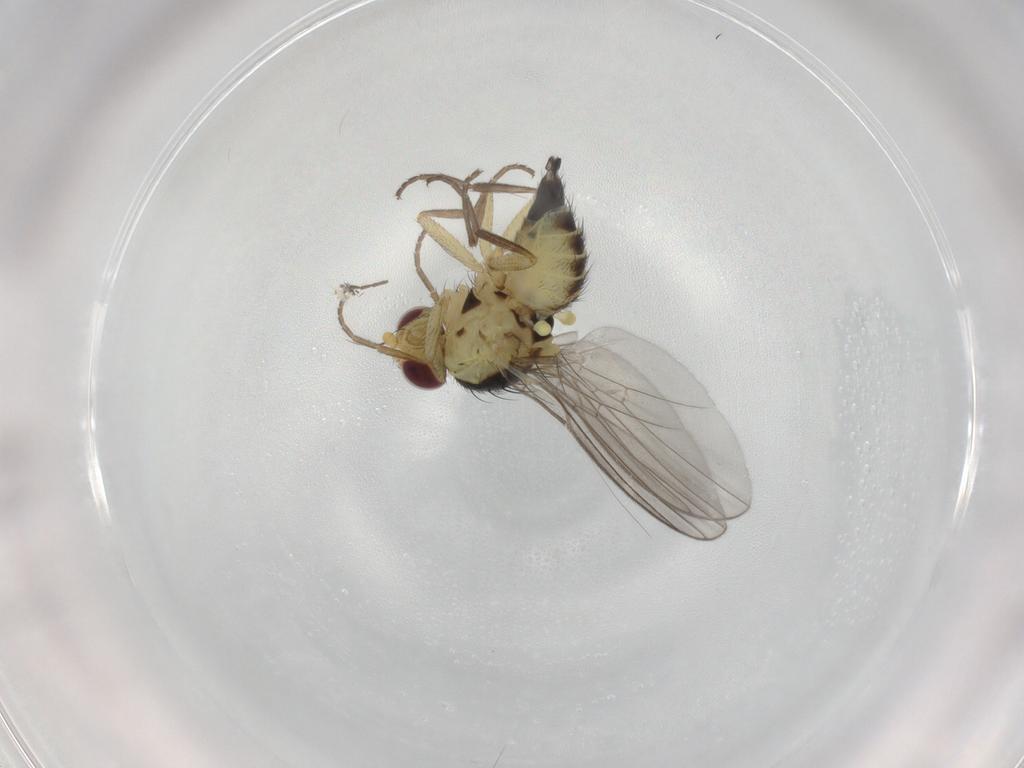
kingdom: Animalia
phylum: Arthropoda
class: Insecta
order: Diptera
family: Agromyzidae
